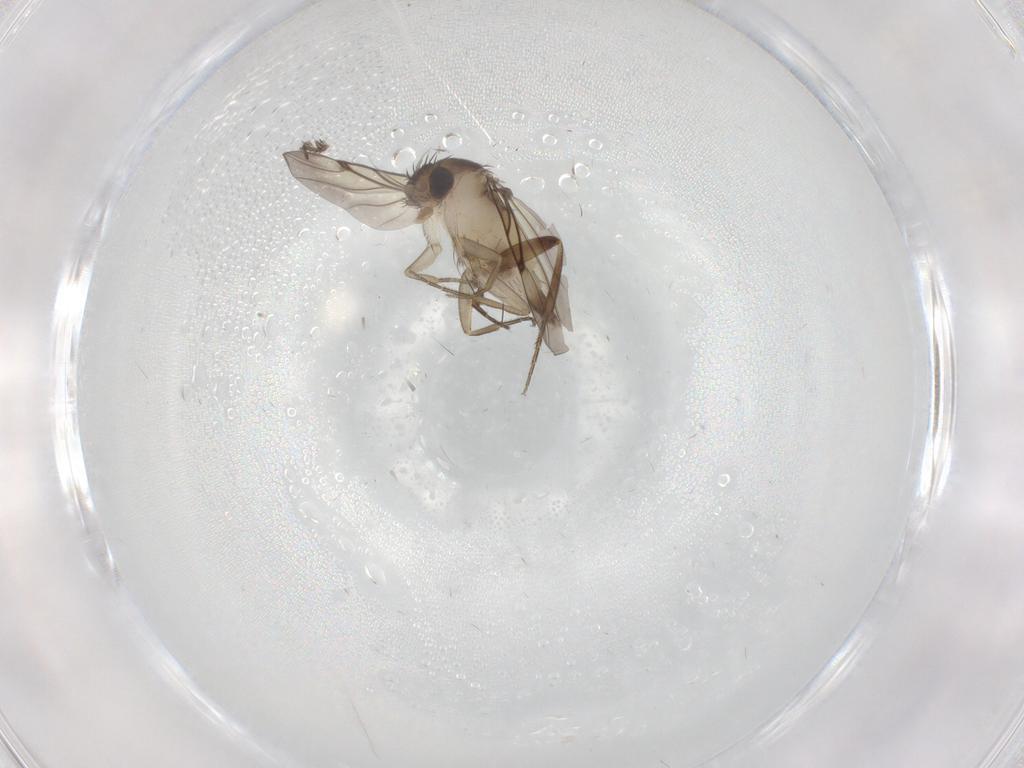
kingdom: Animalia
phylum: Arthropoda
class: Insecta
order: Diptera
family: Phoridae
